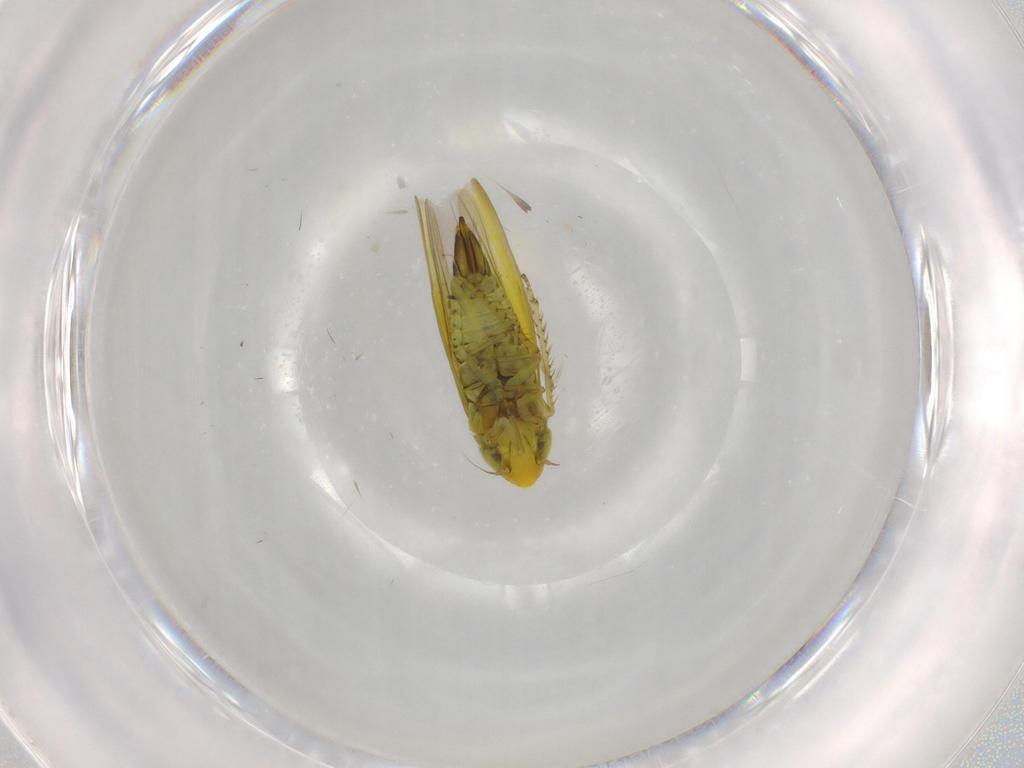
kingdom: Animalia
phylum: Arthropoda
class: Insecta
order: Hemiptera
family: Cicadellidae
